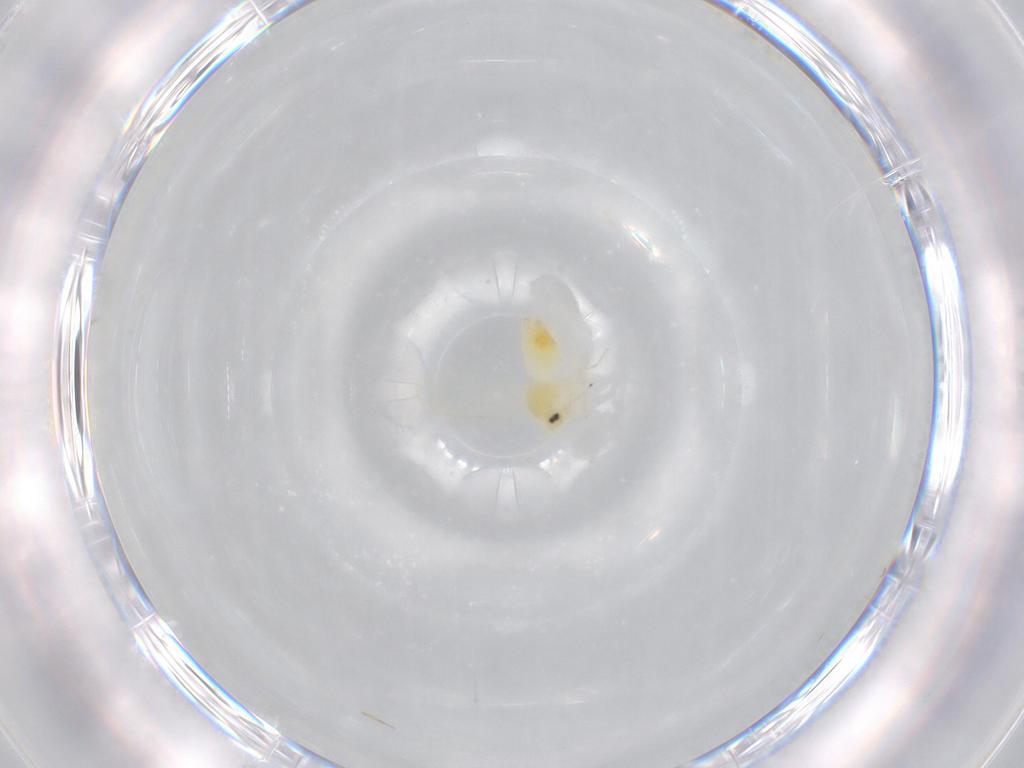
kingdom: Animalia
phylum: Arthropoda
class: Insecta
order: Hemiptera
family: Aleyrodidae
